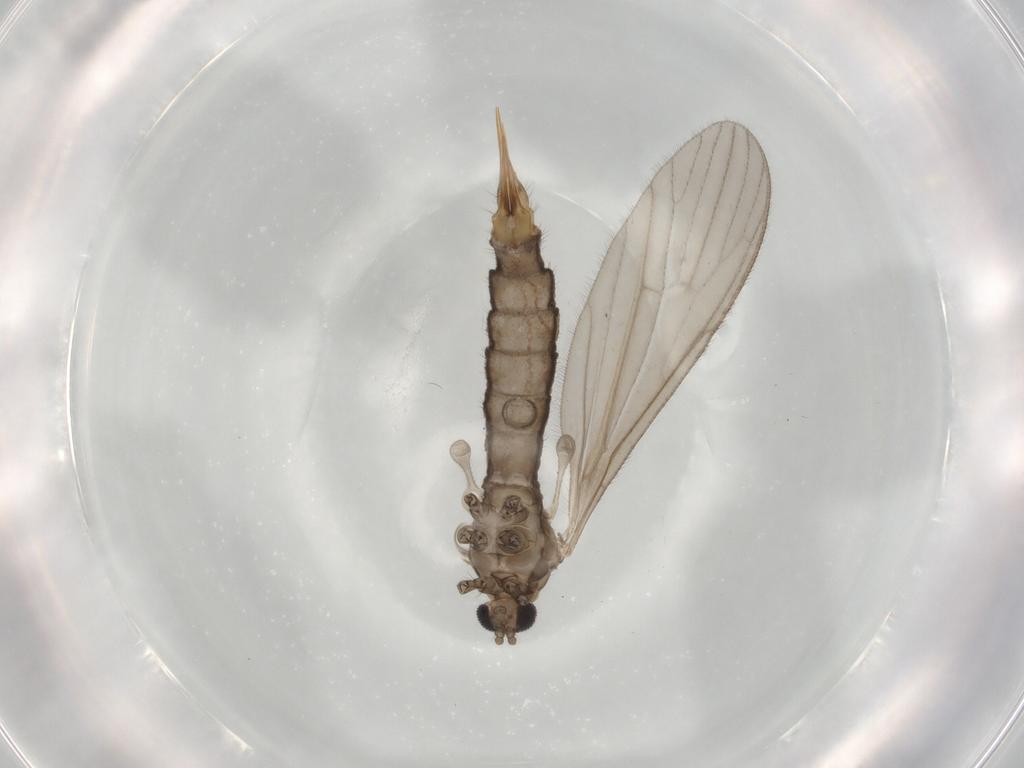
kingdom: Animalia
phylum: Arthropoda
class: Insecta
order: Diptera
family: Limoniidae
